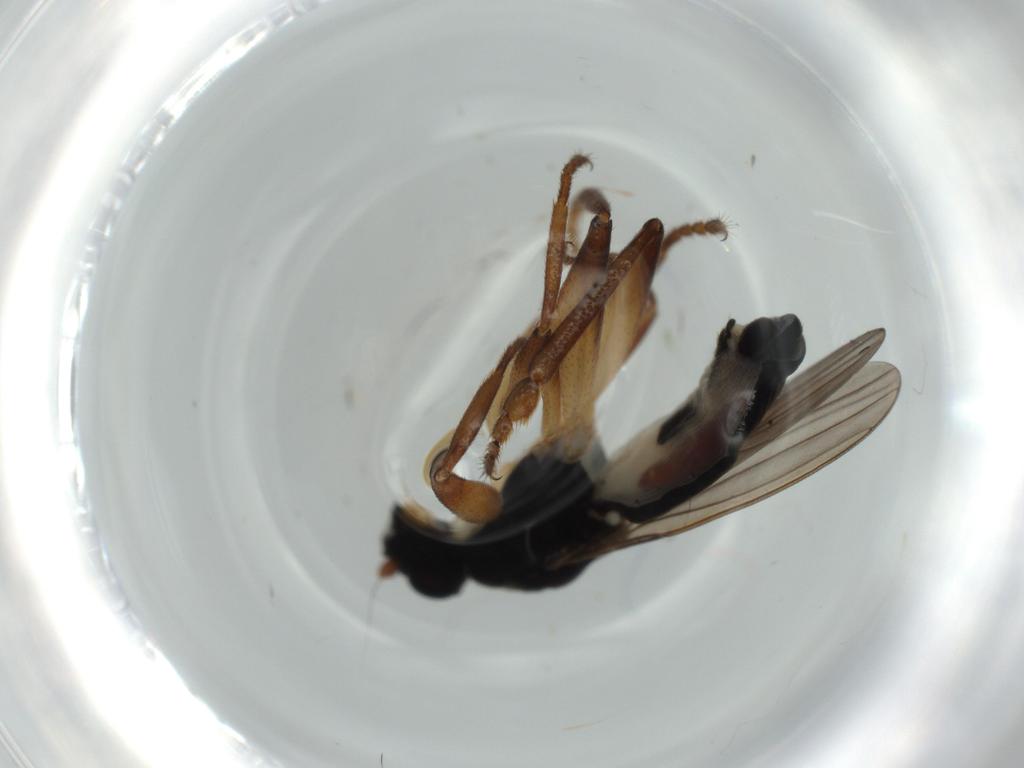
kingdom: Animalia
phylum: Arthropoda
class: Insecta
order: Diptera
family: Sphaeroceridae
